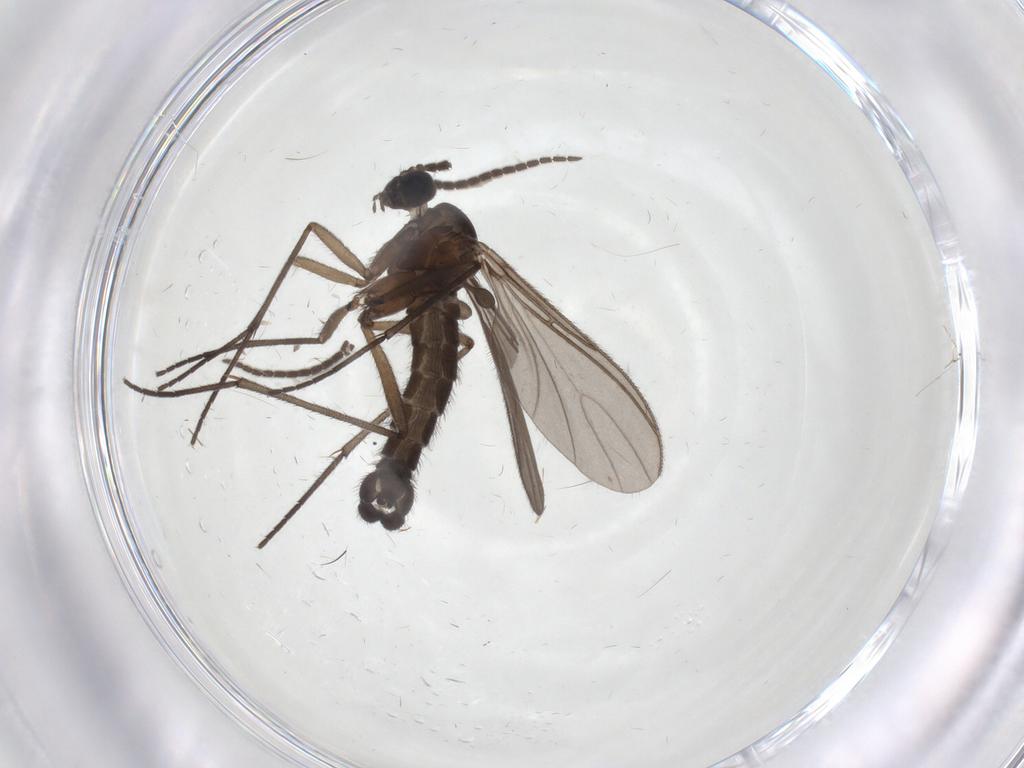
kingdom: Animalia
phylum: Arthropoda
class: Insecta
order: Diptera
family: Sciaridae
